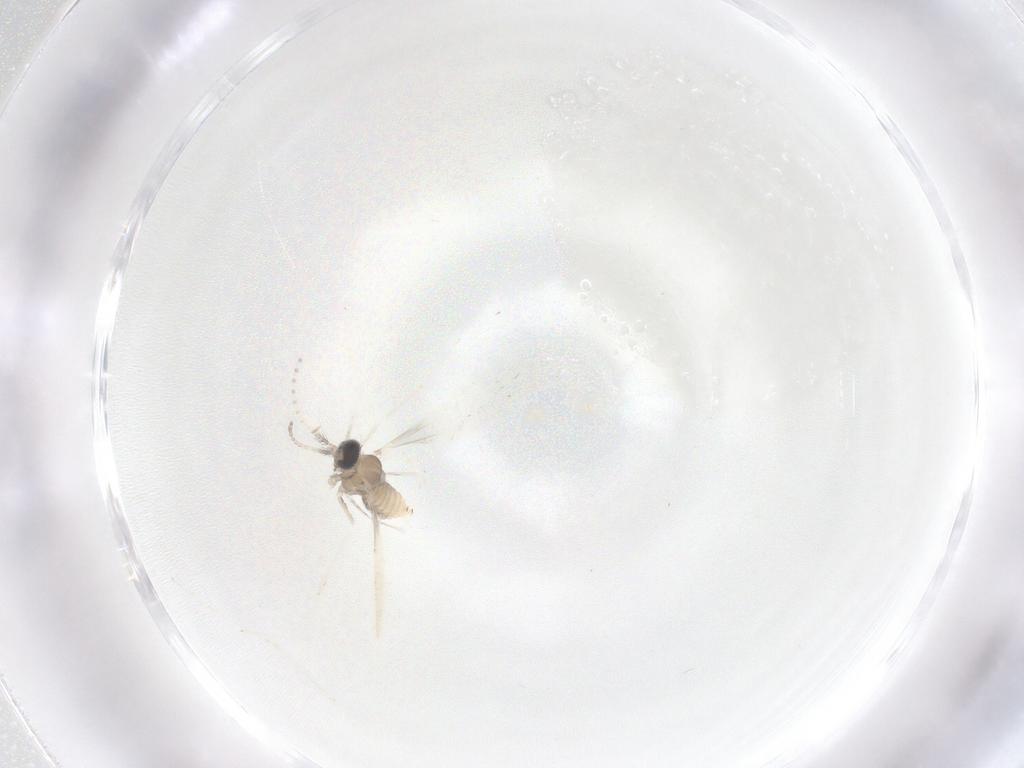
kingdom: Animalia
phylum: Arthropoda
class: Insecta
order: Diptera
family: Cecidomyiidae
